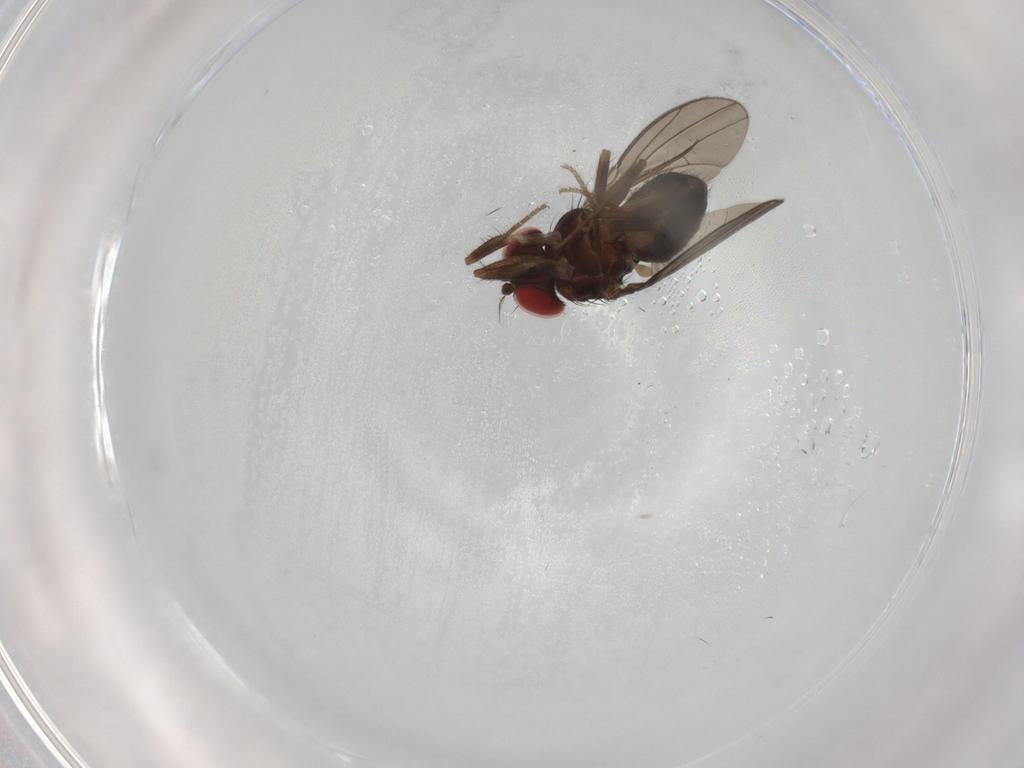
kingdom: Animalia
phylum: Arthropoda
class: Insecta
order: Diptera
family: Drosophilidae
